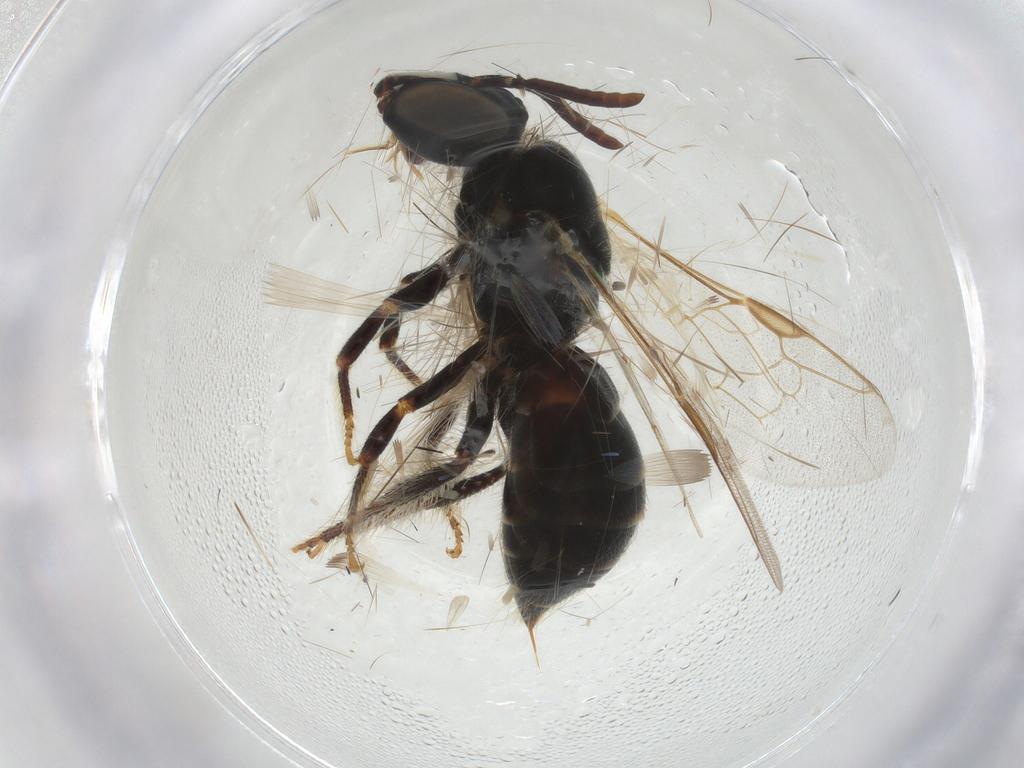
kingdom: Animalia
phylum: Arthropoda
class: Insecta
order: Hymenoptera
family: Apidae
